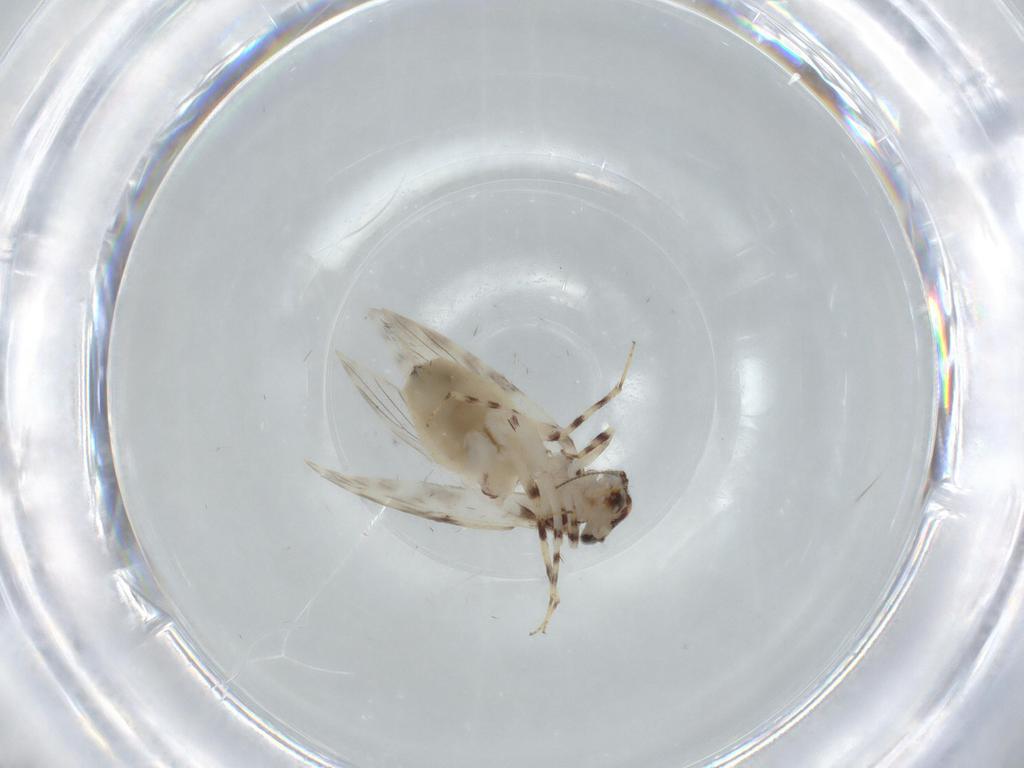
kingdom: Animalia
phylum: Arthropoda
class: Insecta
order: Psocodea
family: Lepidopsocidae
